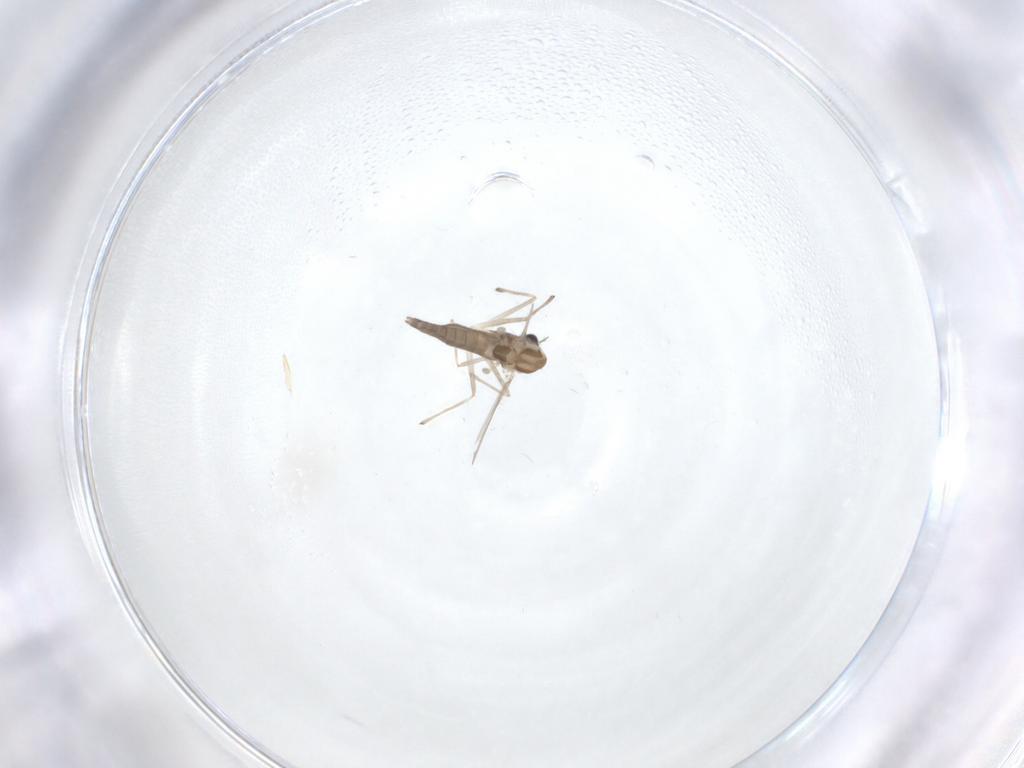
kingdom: Animalia
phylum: Arthropoda
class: Insecta
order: Diptera
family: Chironomidae
